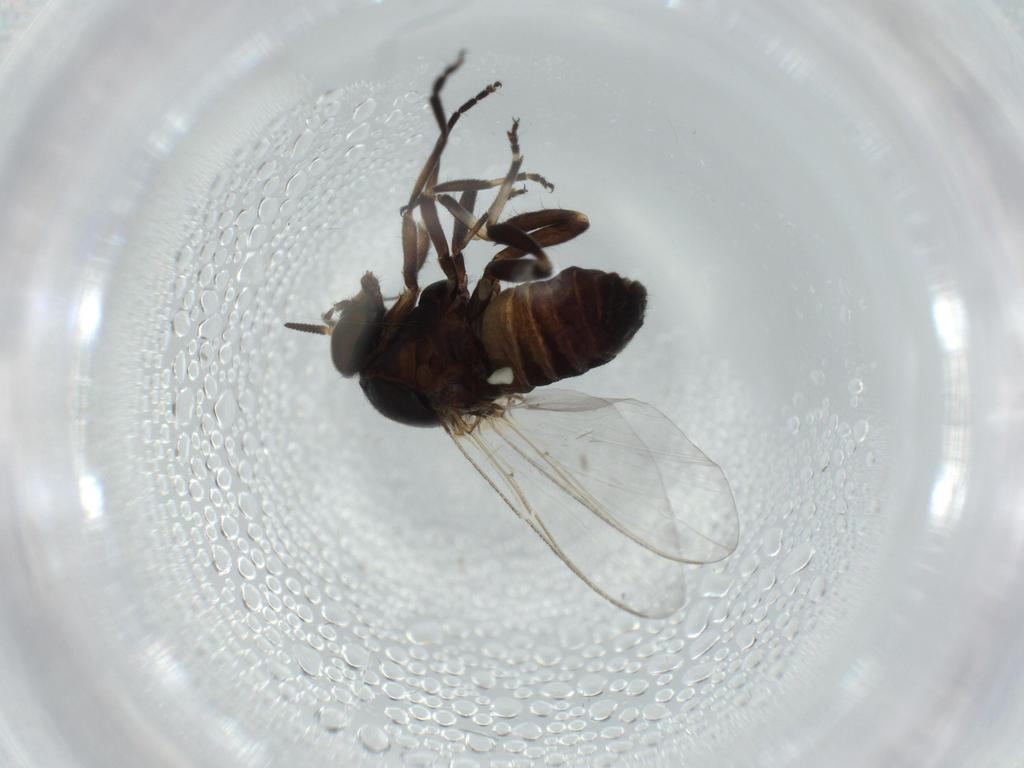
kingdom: Animalia
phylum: Arthropoda
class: Insecta
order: Diptera
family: Phoridae
